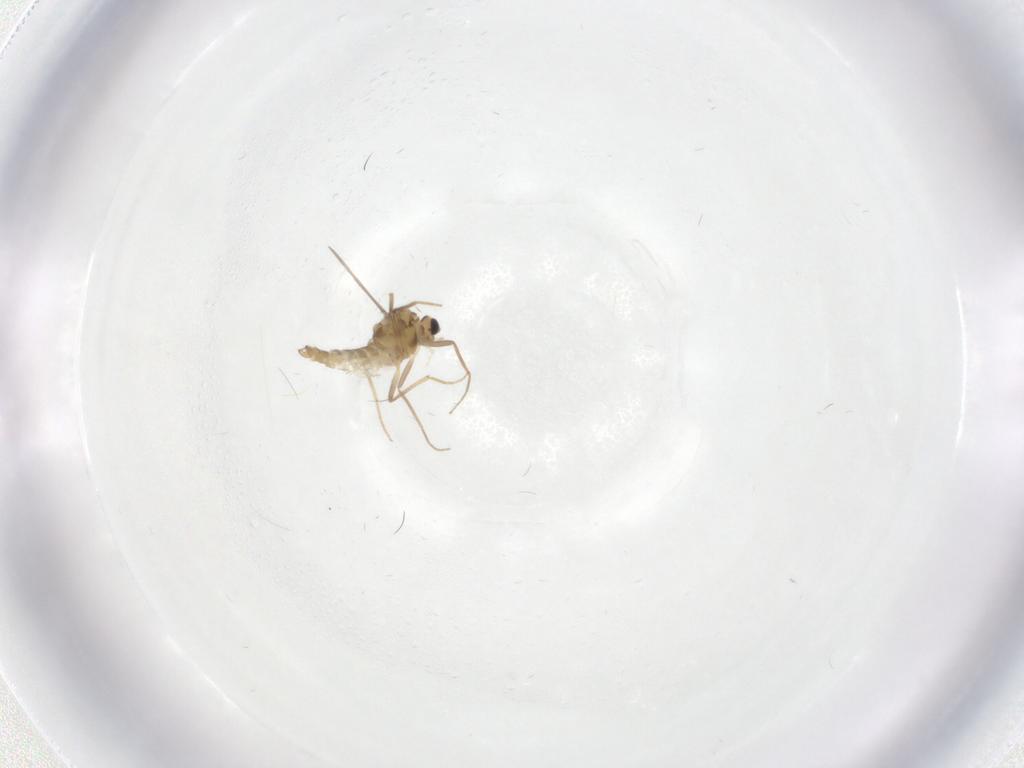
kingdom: Animalia
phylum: Arthropoda
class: Insecta
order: Diptera
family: Chironomidae
